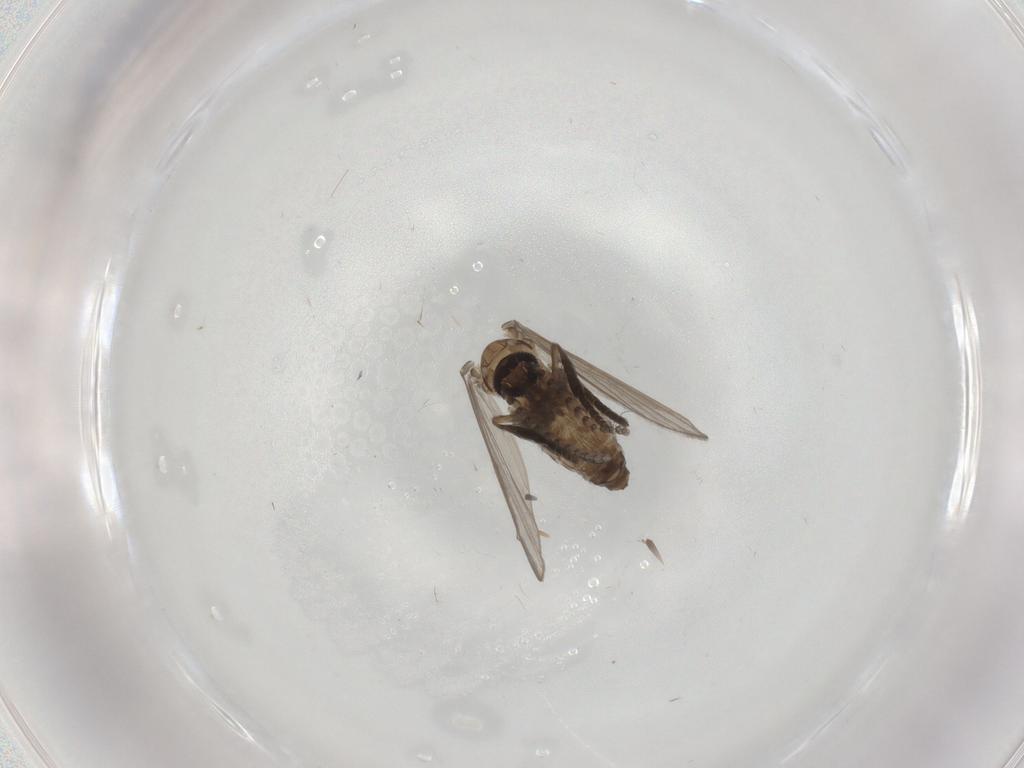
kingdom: Animalia
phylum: Arthropoda
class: Insecta
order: Diptera
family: Psychodidae
